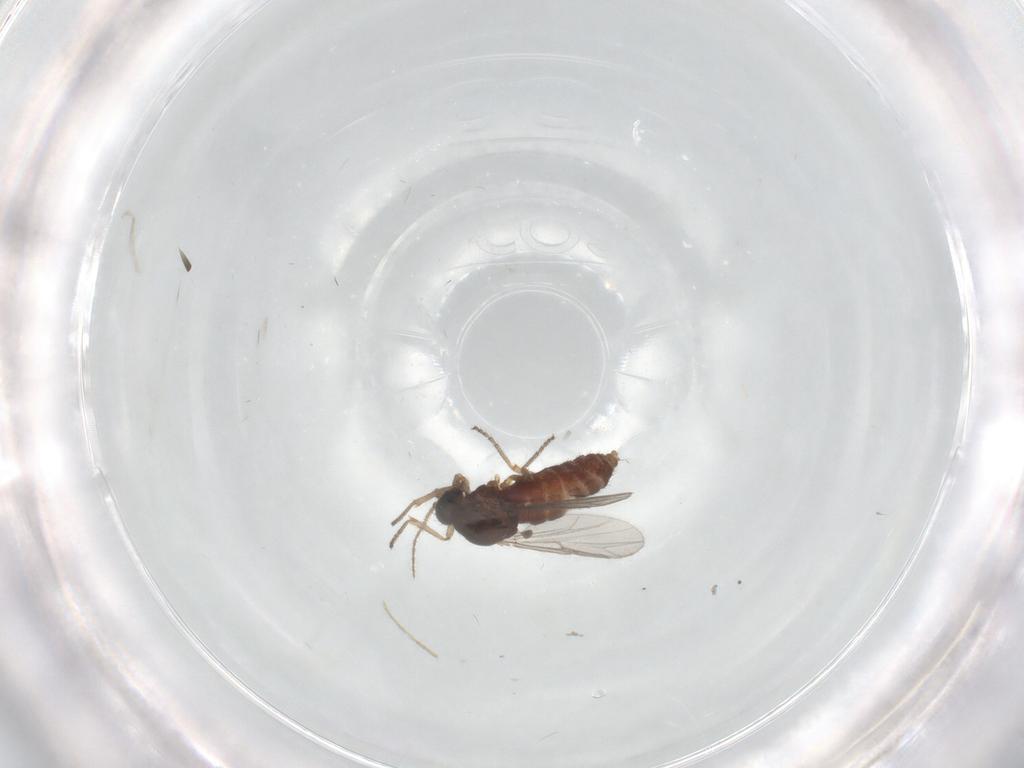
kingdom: Animalia
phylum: Arthropoda
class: Insecta
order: Diptera
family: Ceratopogonidae
